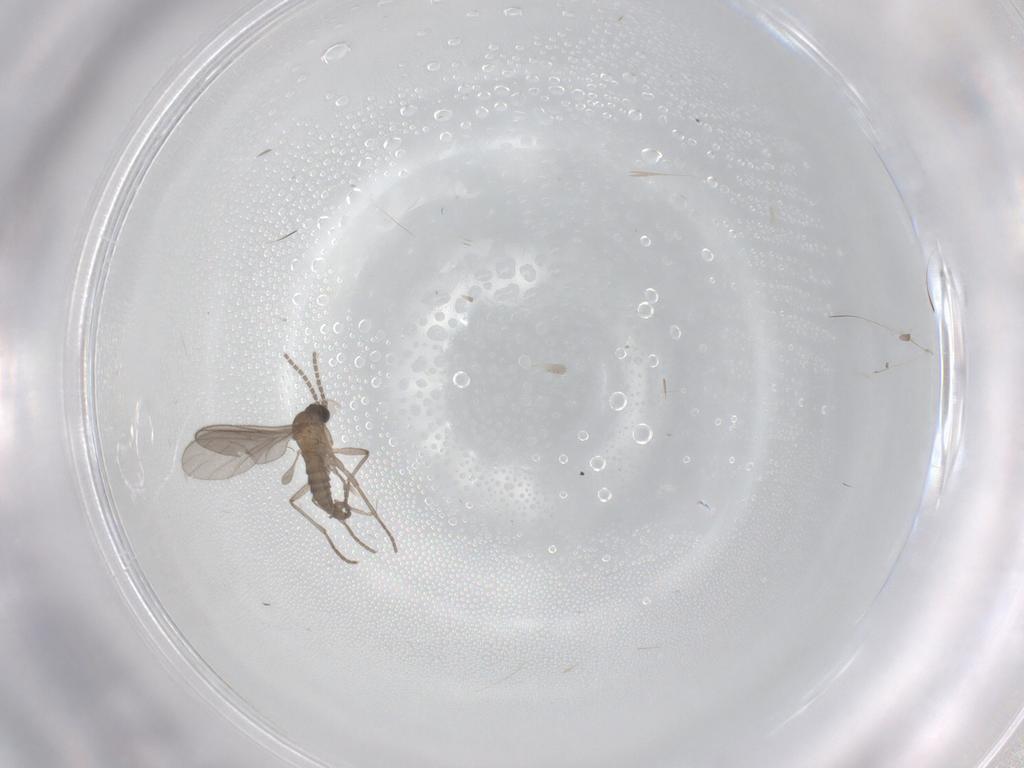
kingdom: Animalia
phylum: Arthropoda
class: Insecta
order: Diptera
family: Sciaridae
